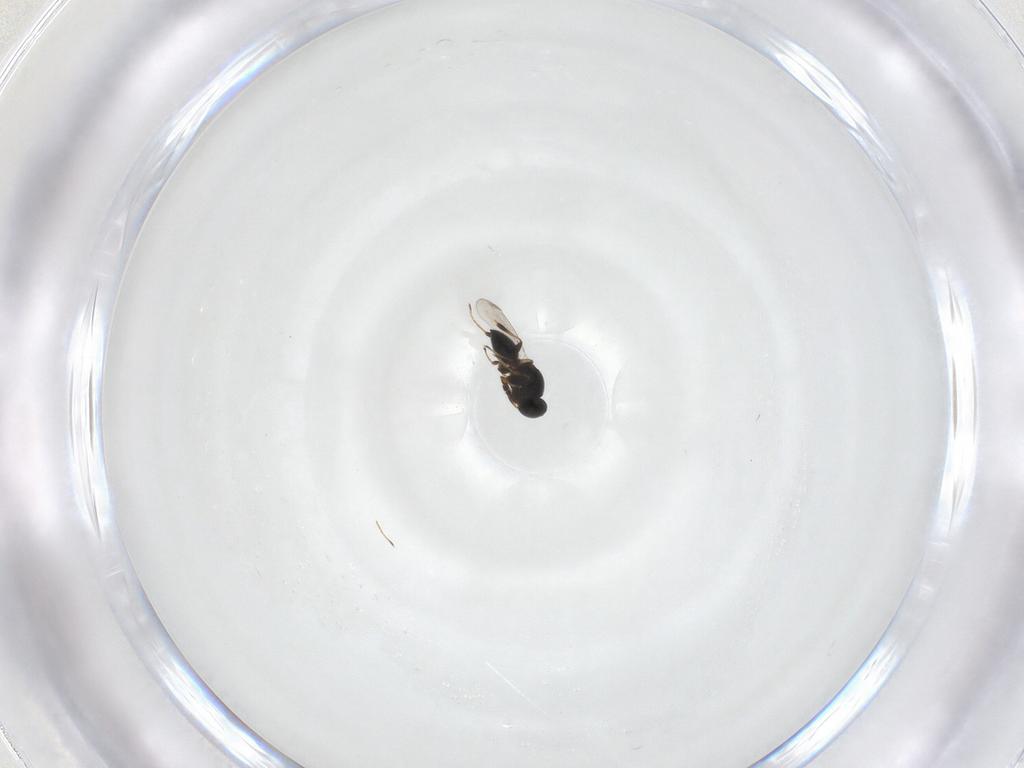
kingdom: Animalia
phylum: Arthropoda
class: Insecta
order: Hymenoptera
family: Platygastridae
